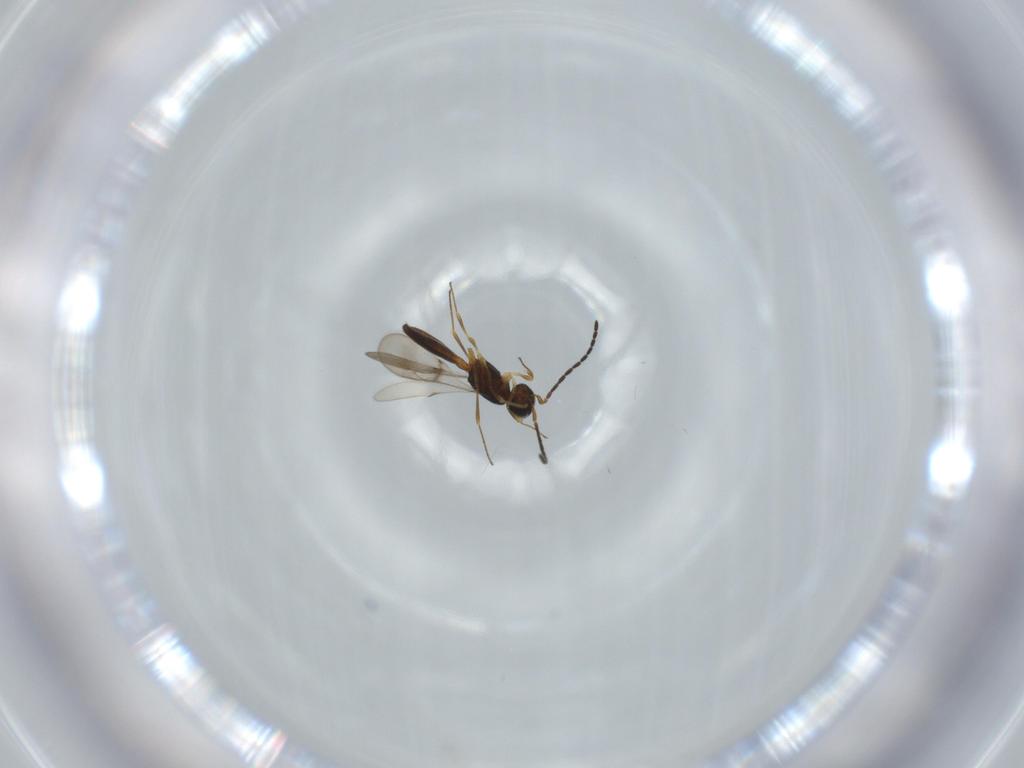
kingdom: Animalia
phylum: Arthropoda
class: Insecta
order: Hymenoptera
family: Scelionidae
